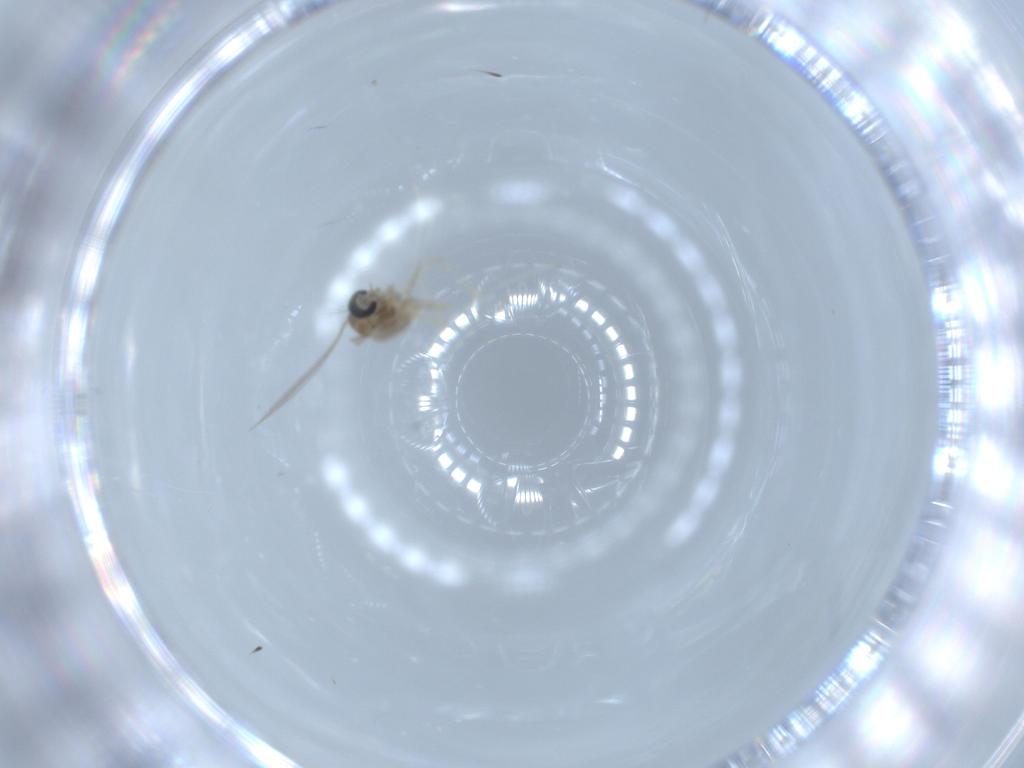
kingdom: Animalia
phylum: Arthropoda
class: Insecta
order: Diptera
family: Cecidomyiidae
